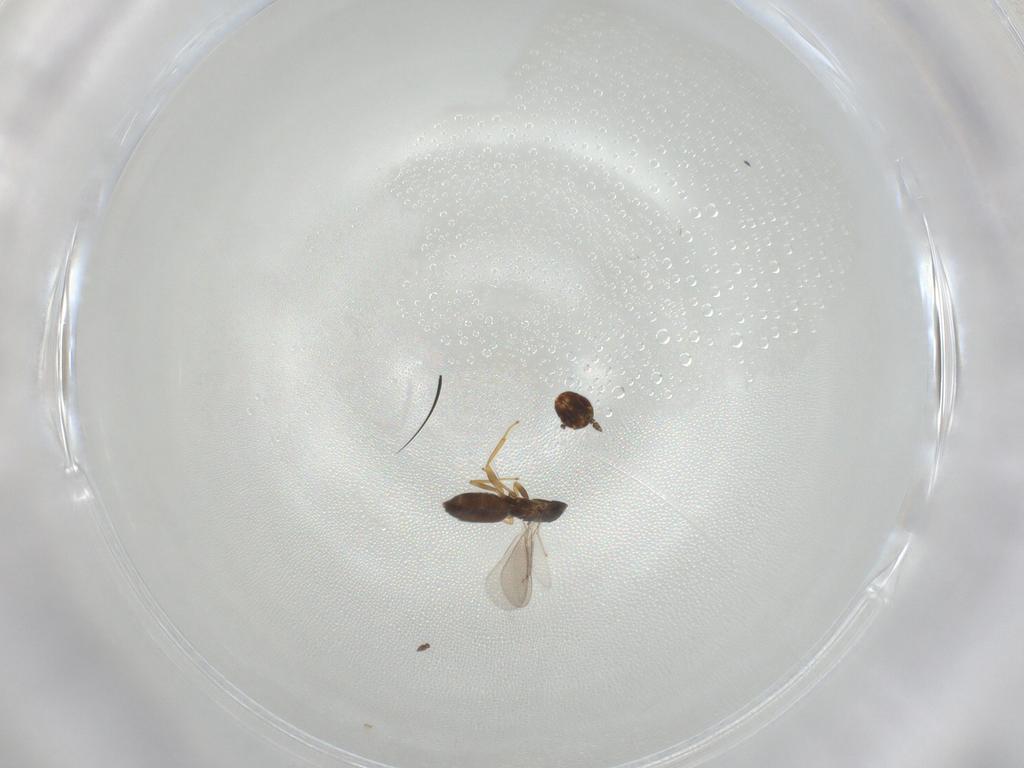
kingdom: Animalia
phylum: Arthropoda
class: Insecta
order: Hymenoptera
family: Eulophidae
